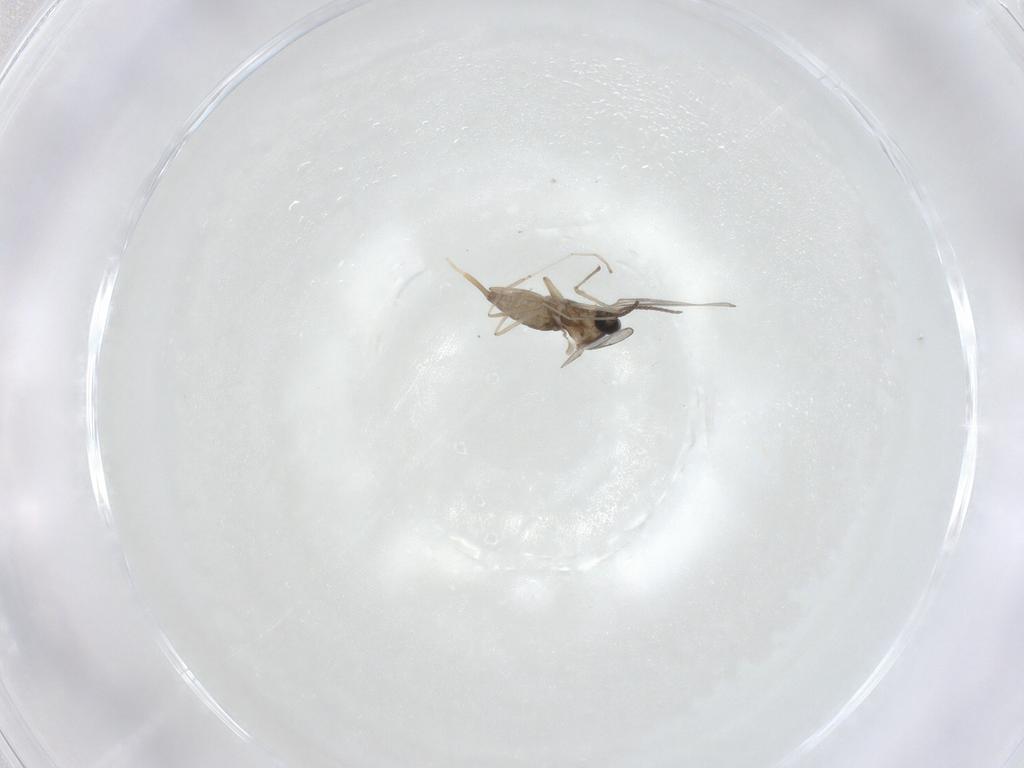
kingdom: Animalia
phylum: Arthropoda
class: Insecta
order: Diptera
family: Cecidomyiidae
